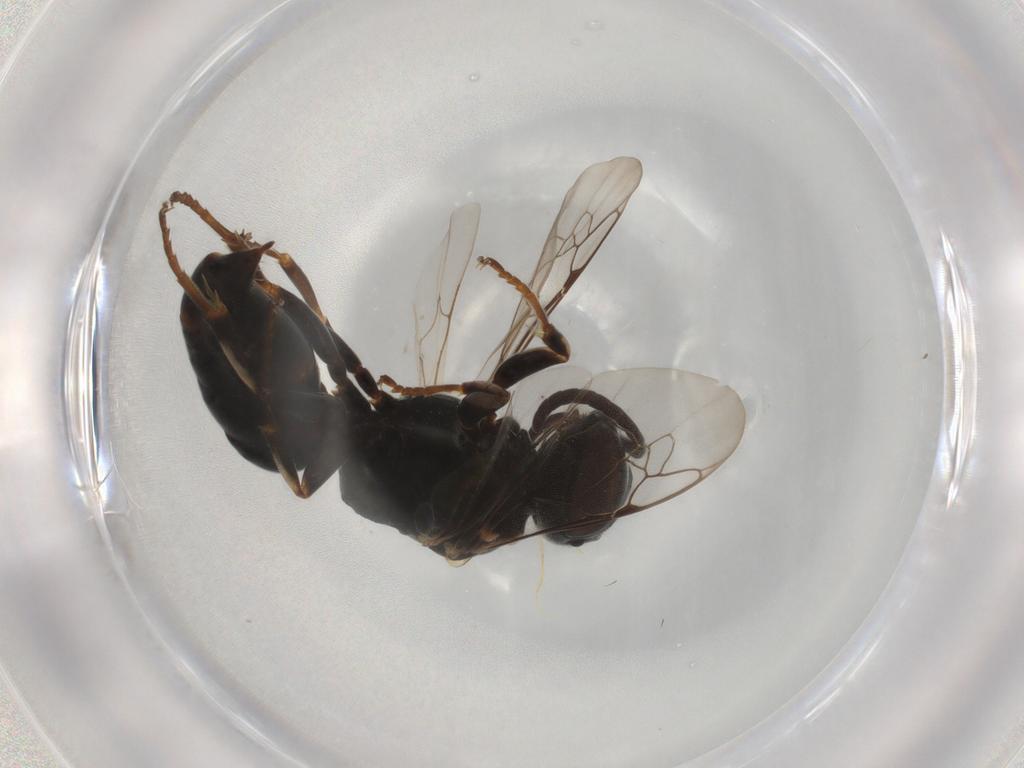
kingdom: Animalia
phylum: Arthropoda
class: Insecta
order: Hymenoptera
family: Crabronidae
